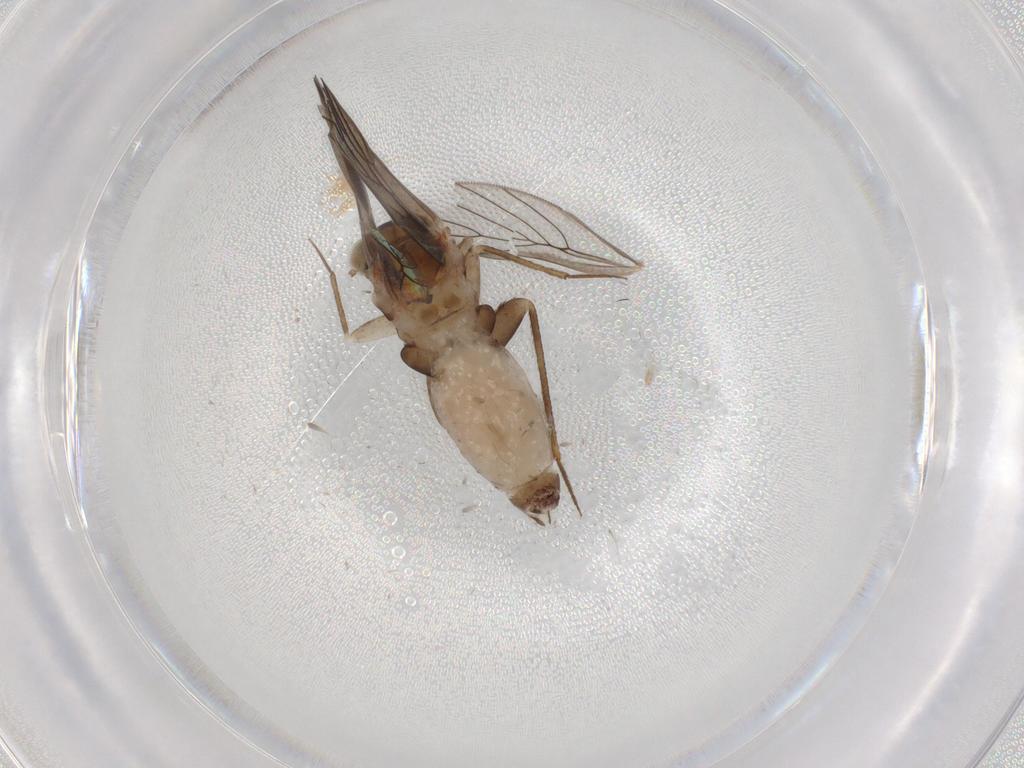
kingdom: Animalia
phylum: Arthropoda
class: Insecta
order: Psocodea
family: Lepidopsocidae
